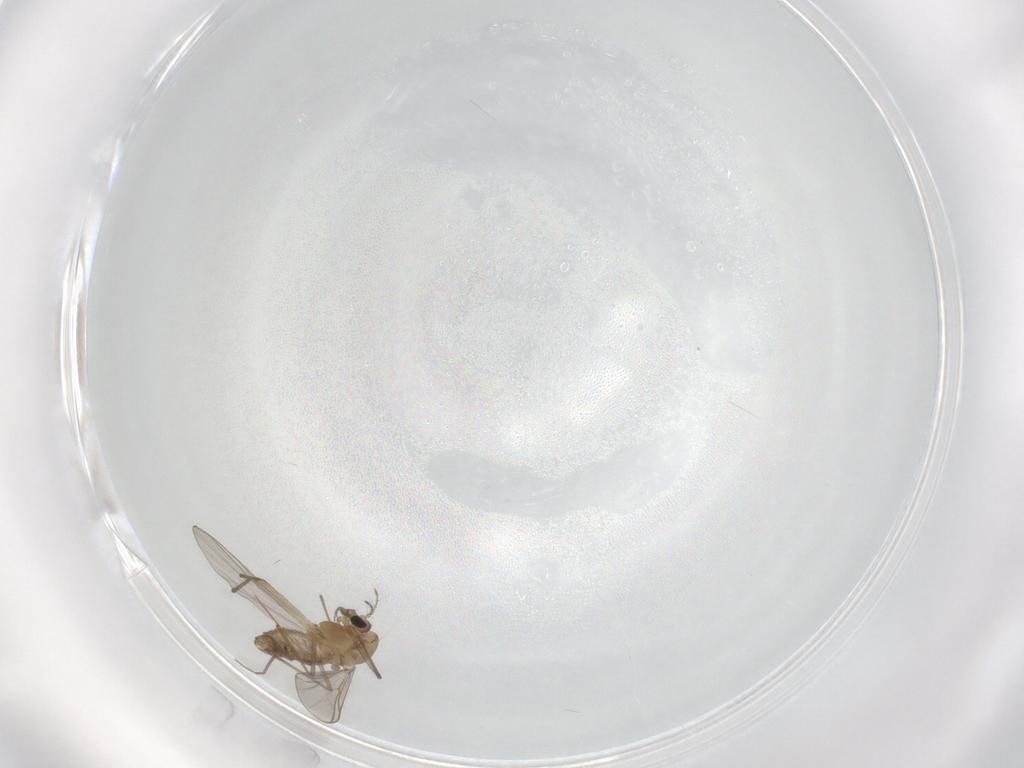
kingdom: Animalia
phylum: Arthropoda
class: Insecta
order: Diptera
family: Chironomidae
